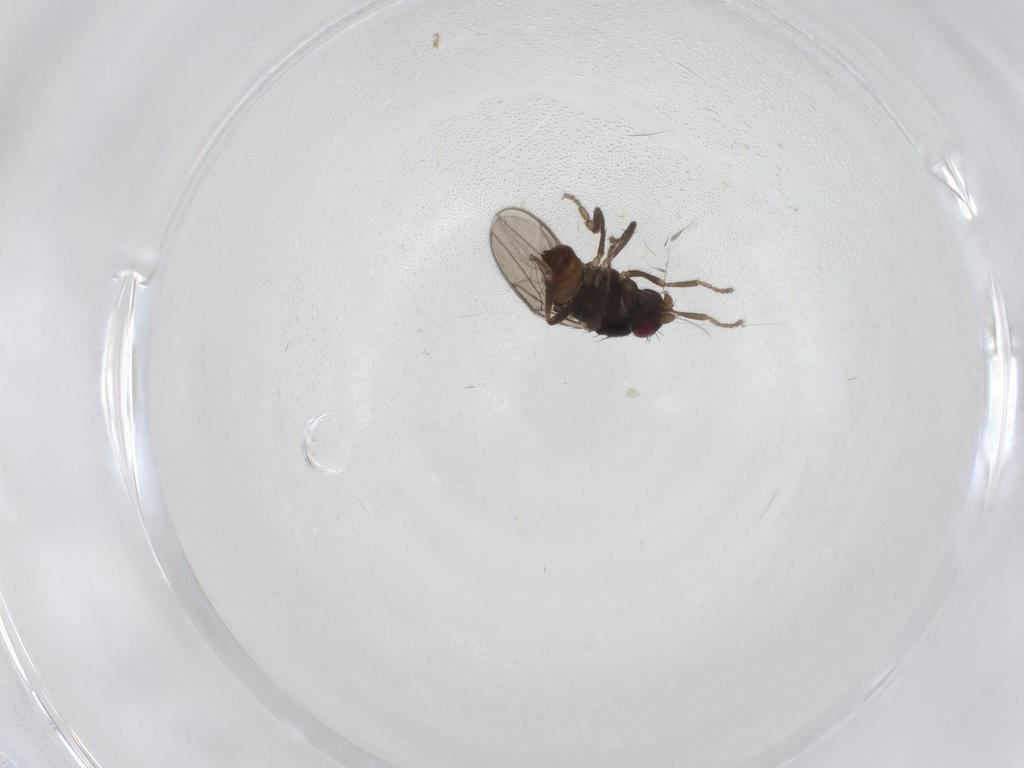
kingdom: Animalia
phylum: Arthropoda
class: Insecta
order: Diptera
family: Sphaeroceridae
